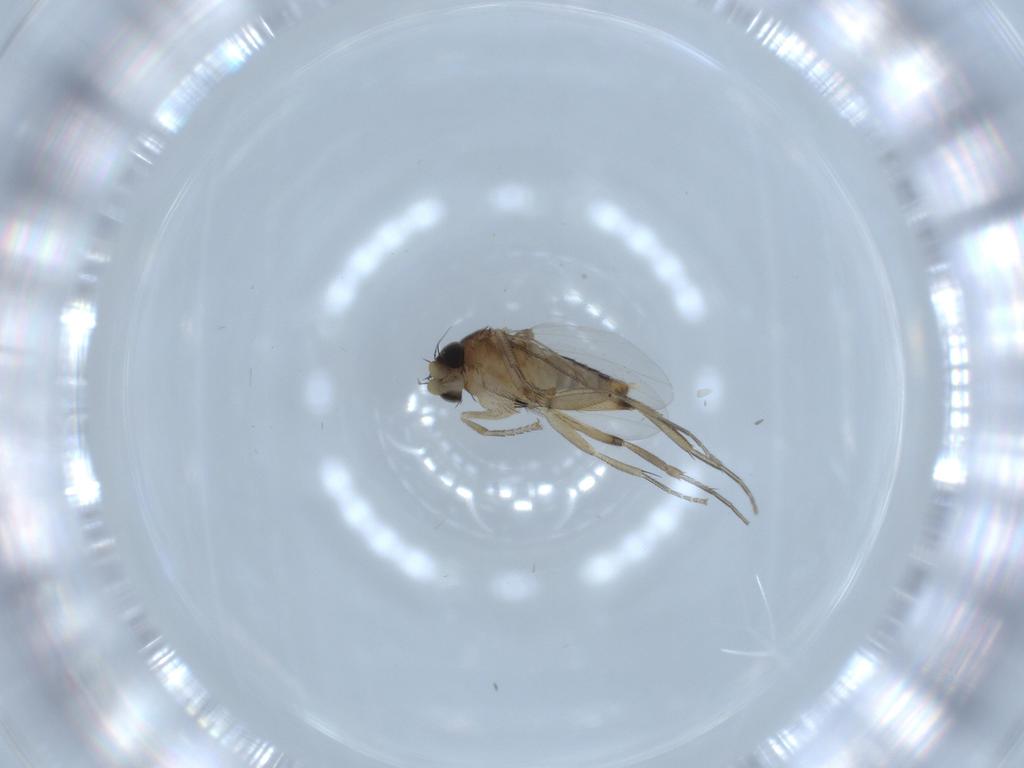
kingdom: Animalia
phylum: Arthropoda
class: Insecta
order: Diptera
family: Phoridae
